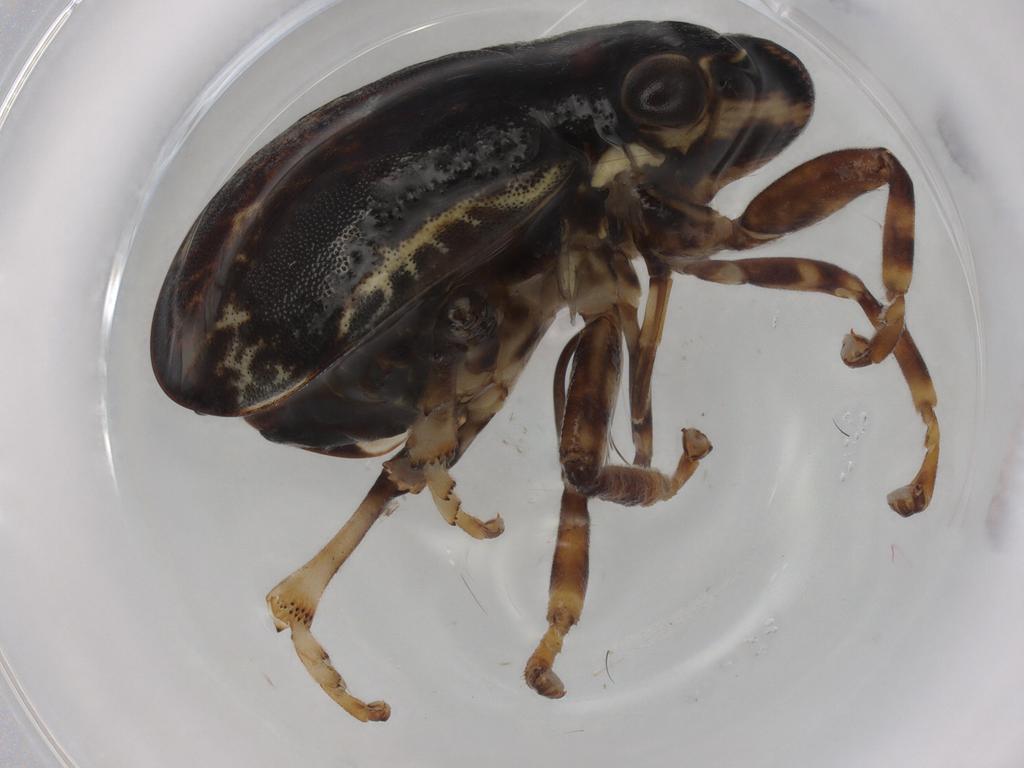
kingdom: Animalia
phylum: Arthropoda
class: Insecta
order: Hemiptera
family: Aphrophoridae
